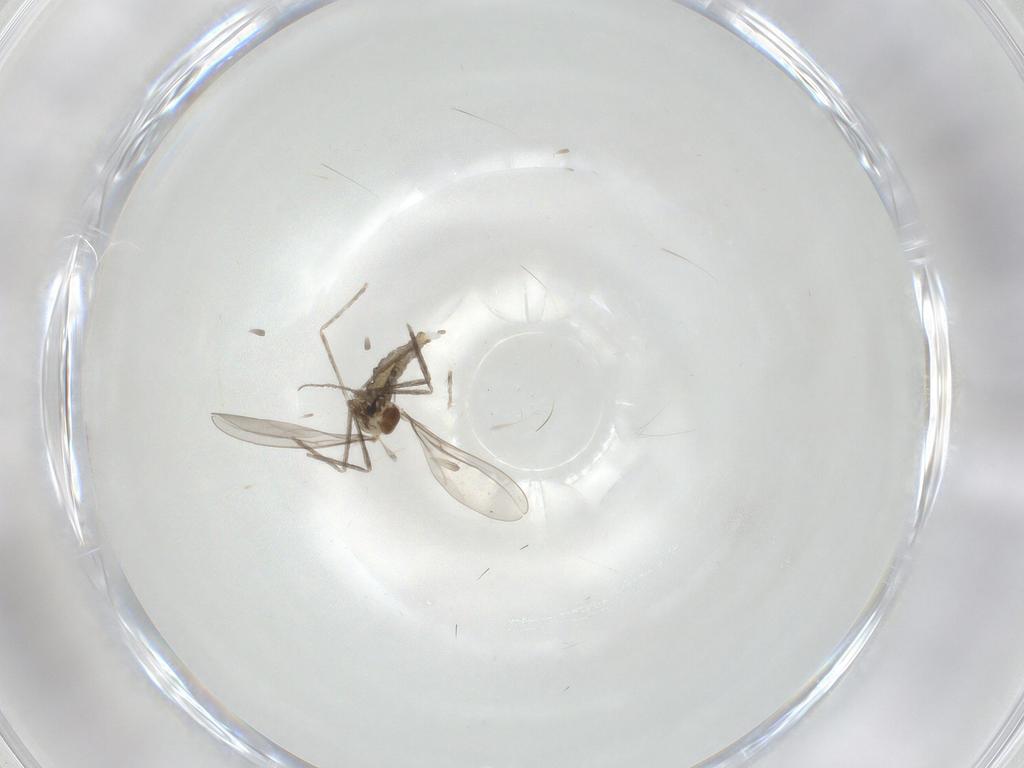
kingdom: Animalia
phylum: Arthropoda
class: Insecta
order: Diptera
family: Cecidomyiidae
